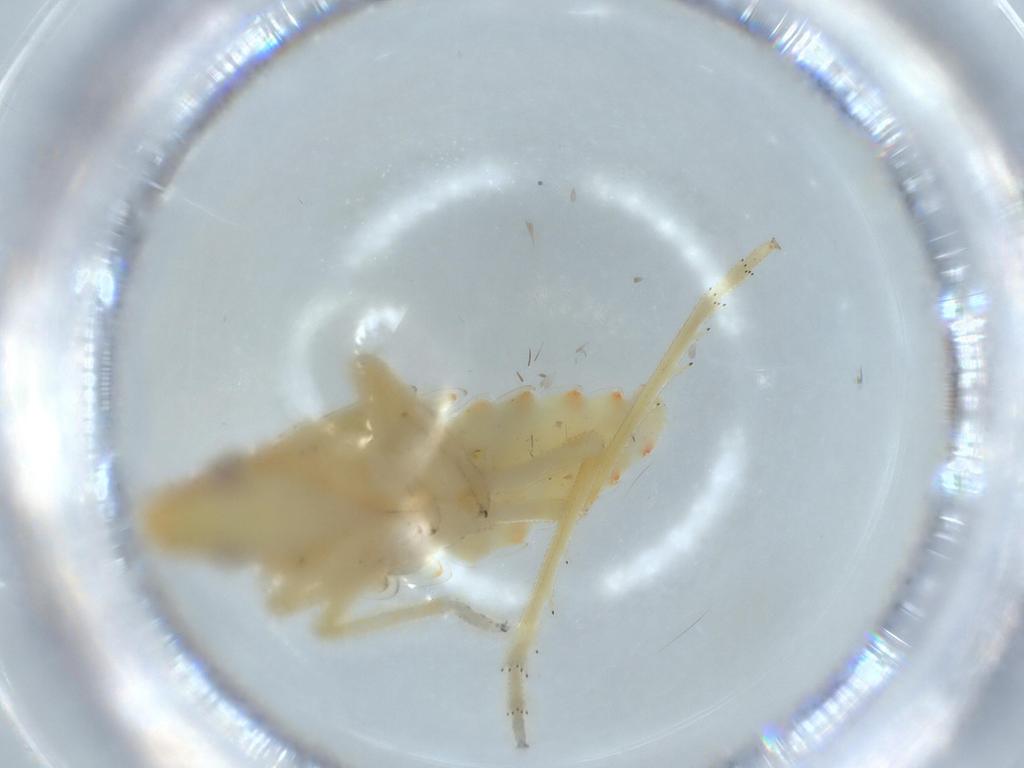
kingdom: Animalia
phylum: Arthropoda
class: Insecta
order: Hemiptera
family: Tropiduchidae
